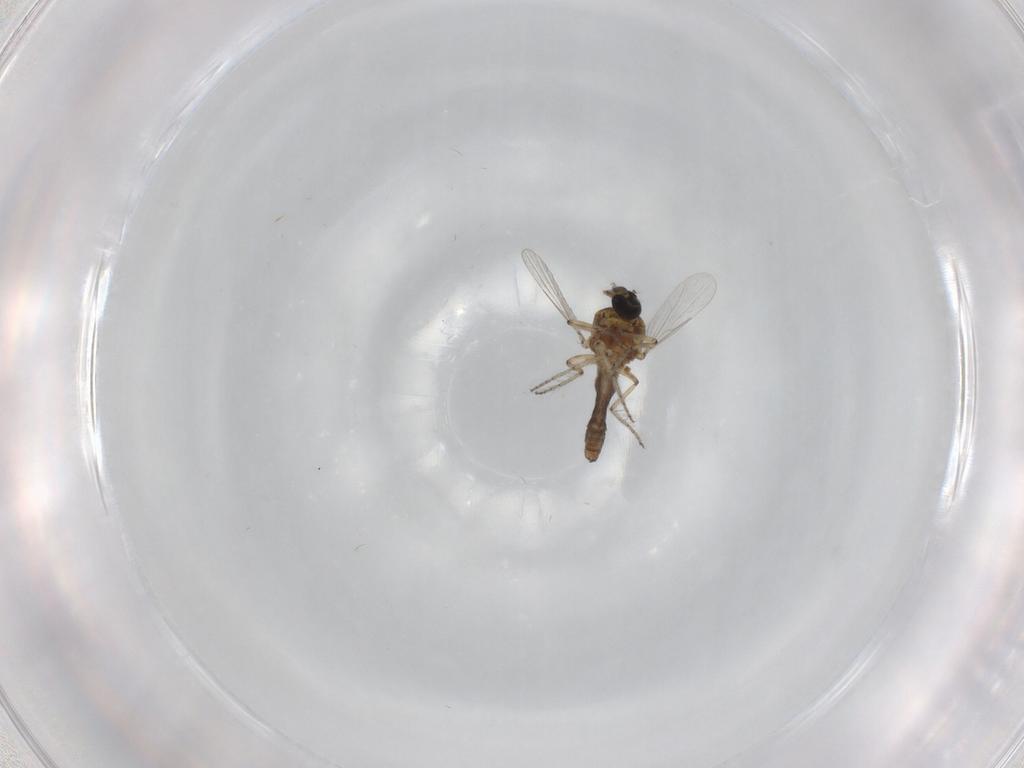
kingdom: Animalia
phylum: Arthropoda
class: Insecta
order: Diptera
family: Ceratopogonidae
